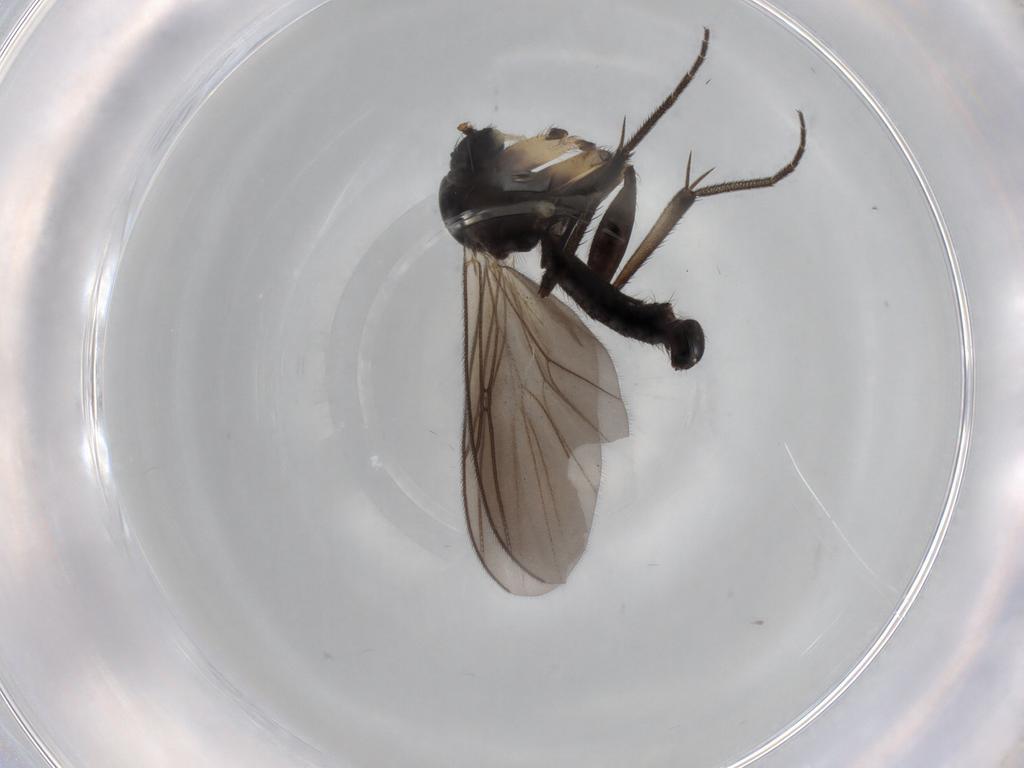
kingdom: Animalia
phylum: Arthropoda
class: Insecta
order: Diptera
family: Mycetophilidae
